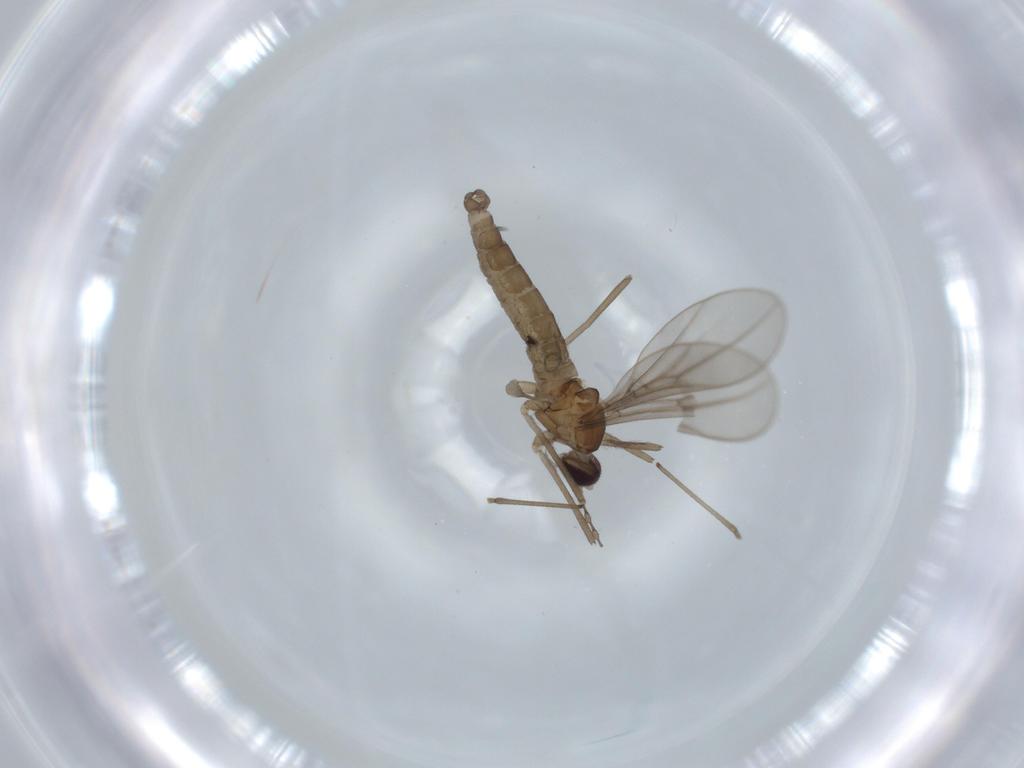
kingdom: Animalia
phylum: Arthropoda
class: Insecta
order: Diptera
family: Cecidomyiidae
